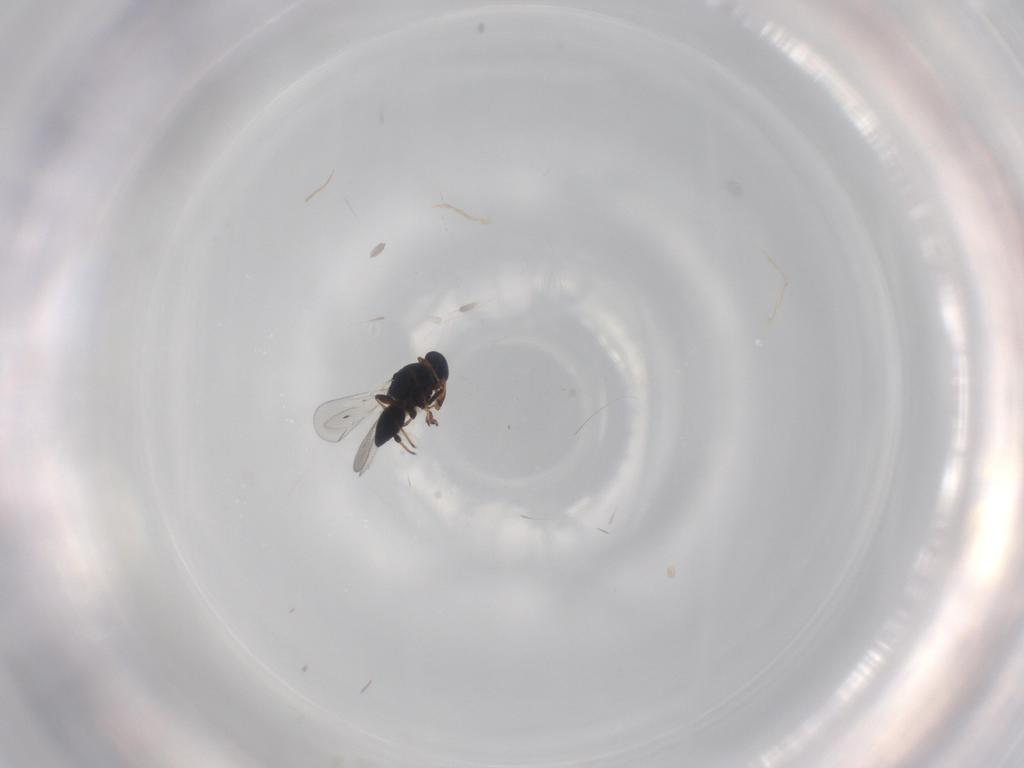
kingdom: Animalia
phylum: Arthropoda
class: Insecta
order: Hymenoptera
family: Platygastridae
